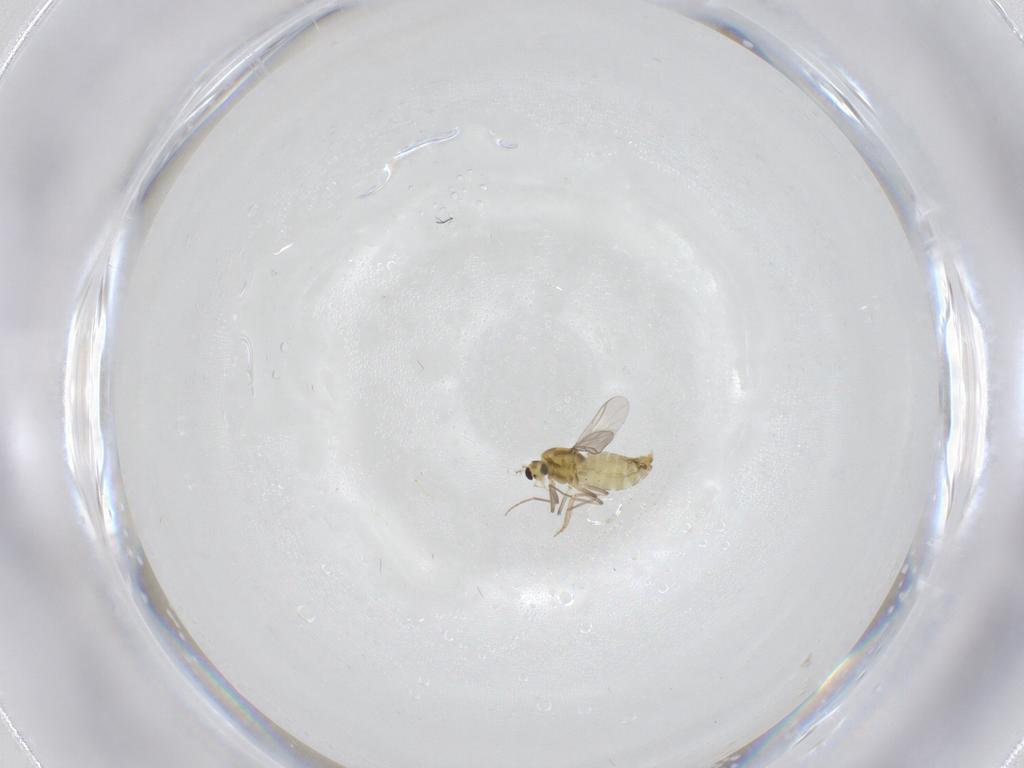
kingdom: Animalia
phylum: Arthropoda
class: Insecta
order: Diptera
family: Chironomidae
